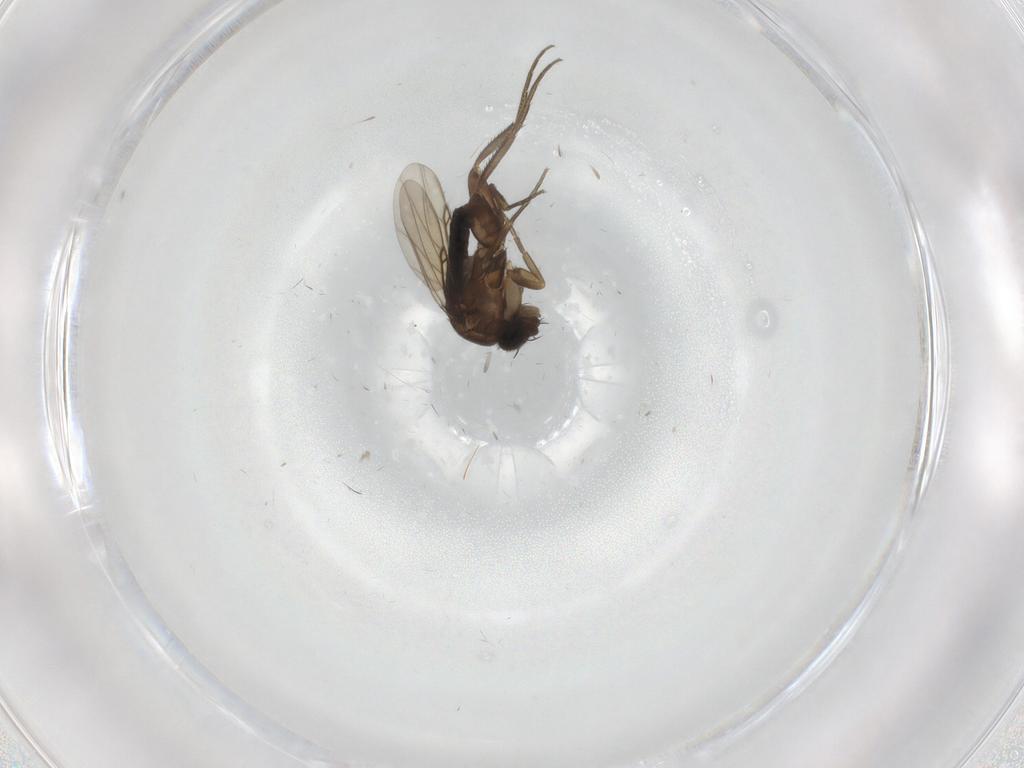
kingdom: Animalia
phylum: Arthropoda
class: Insecta
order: Diptera
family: Phoridae
